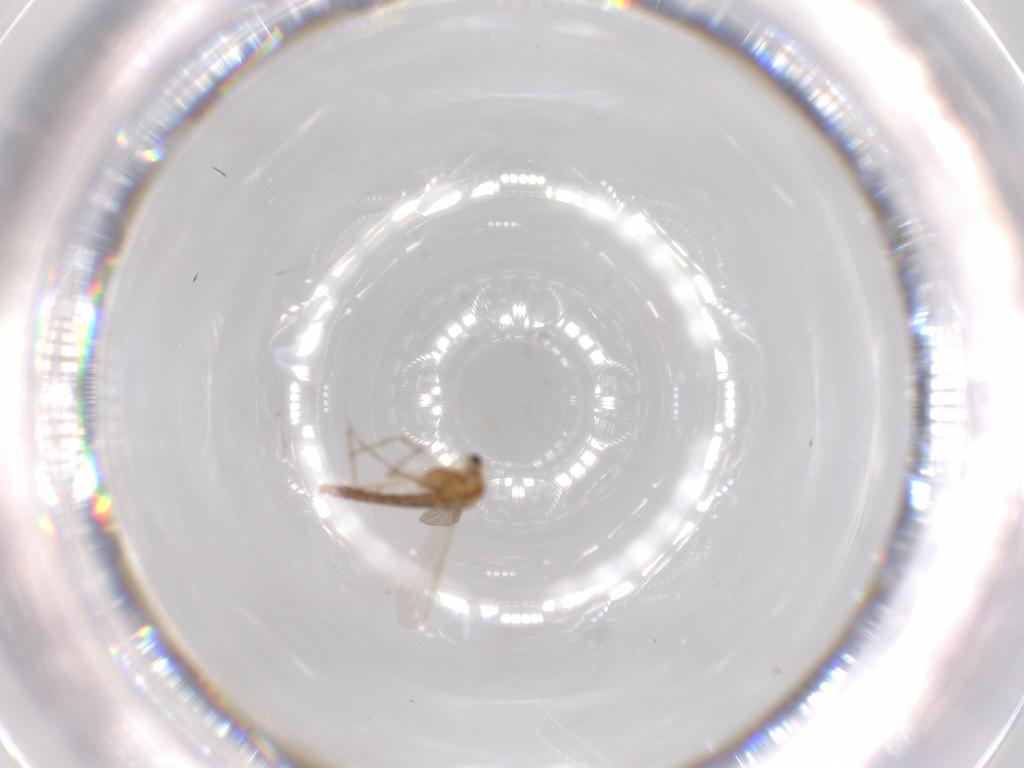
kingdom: Animalia
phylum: Arthropoda
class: Insecta
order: Diptera
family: Chironomidae
